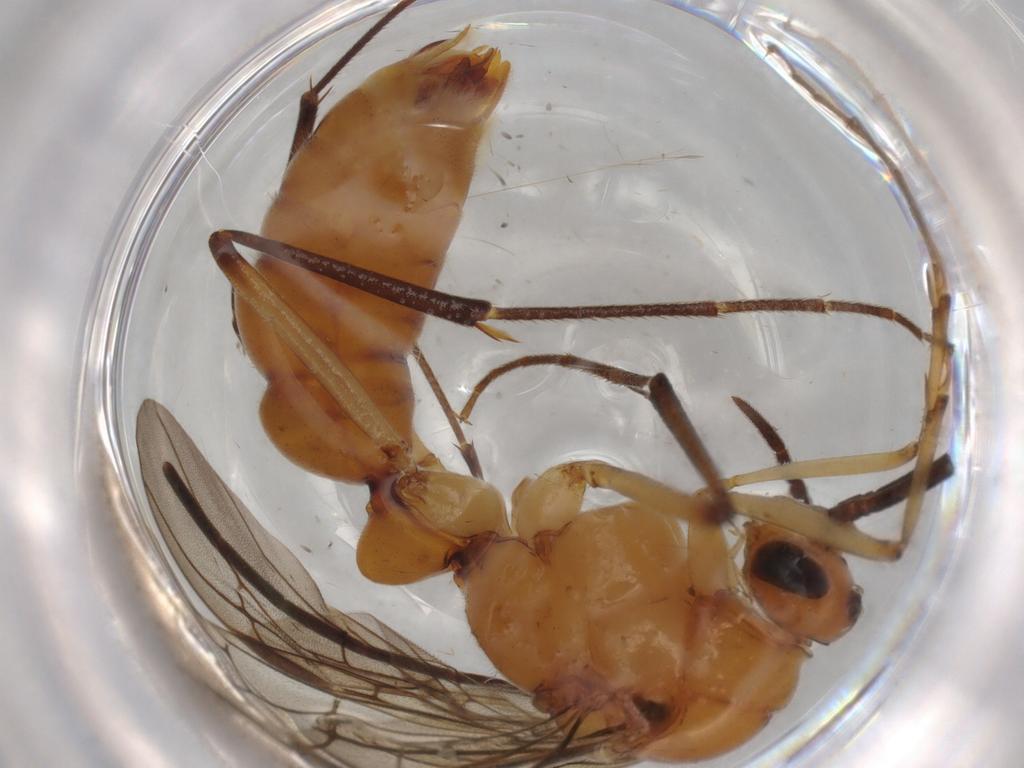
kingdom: Animalia
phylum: Arthropoda
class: Insecta
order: Hymenoptera
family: Formicidae
